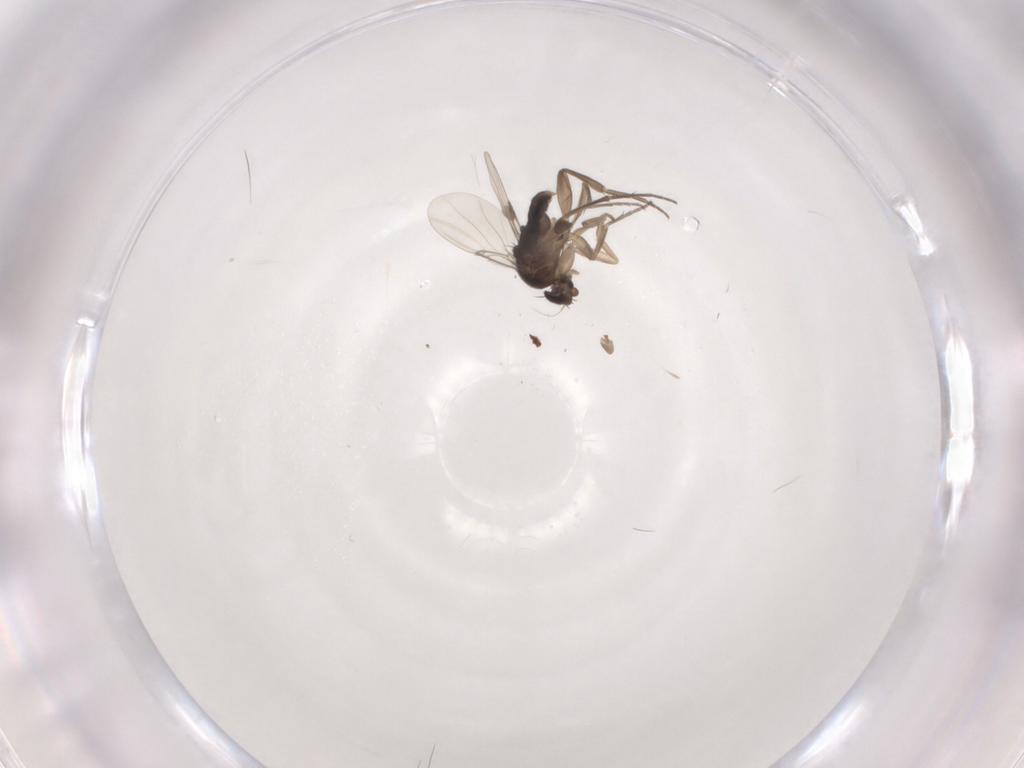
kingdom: Animalia
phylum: Arthropoda
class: Insecta
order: Diptera
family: Phoridae
